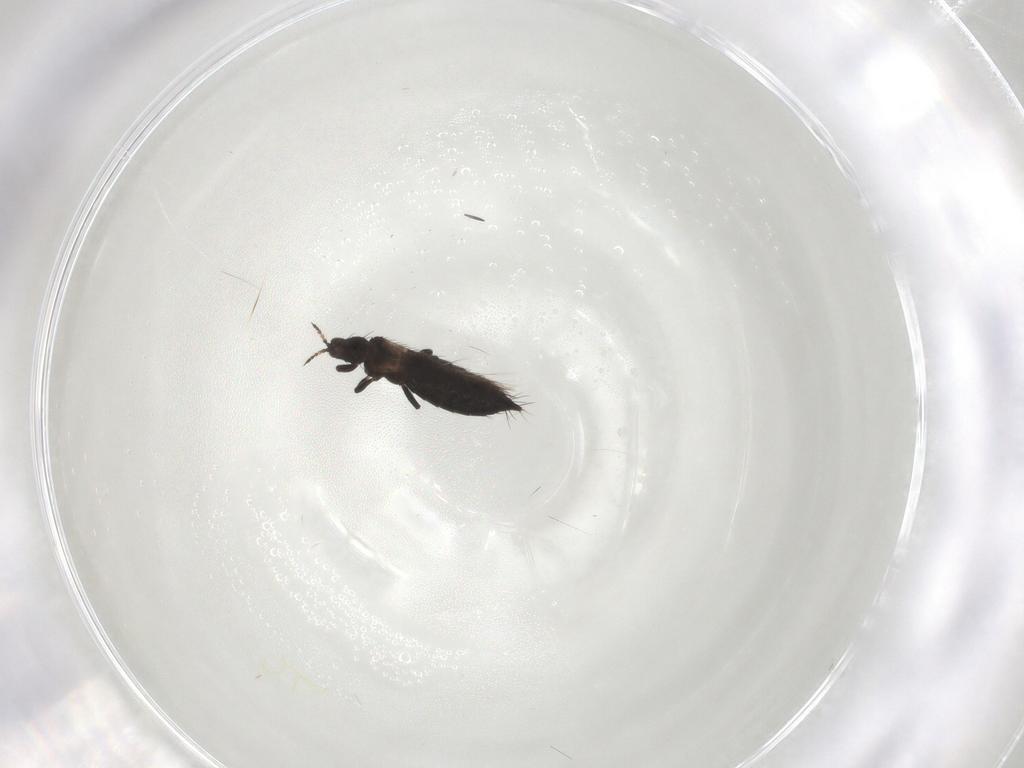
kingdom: Animalia
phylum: Arthropoda
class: Insecta
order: Thysanoptera
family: Thripidae
